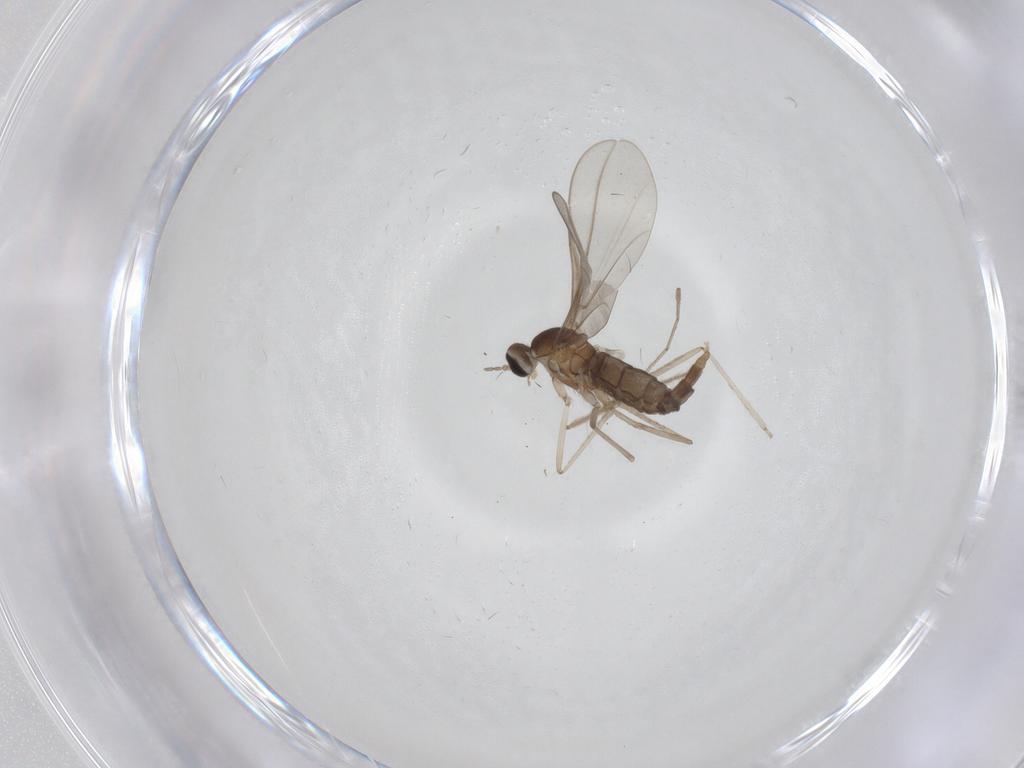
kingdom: Animalia
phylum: Arthropoda
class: Insecta
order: Diptera
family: Cecidomyiidae
